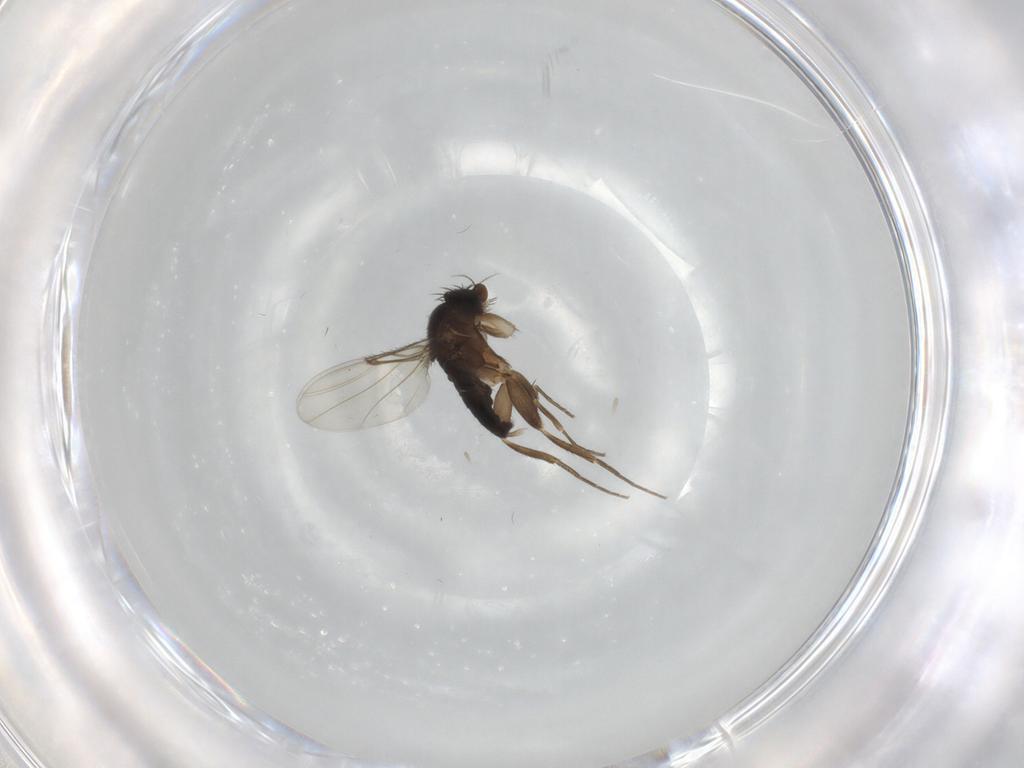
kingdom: Animalia
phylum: Arthropoda
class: Insecta
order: Diptera
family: Phoridae
